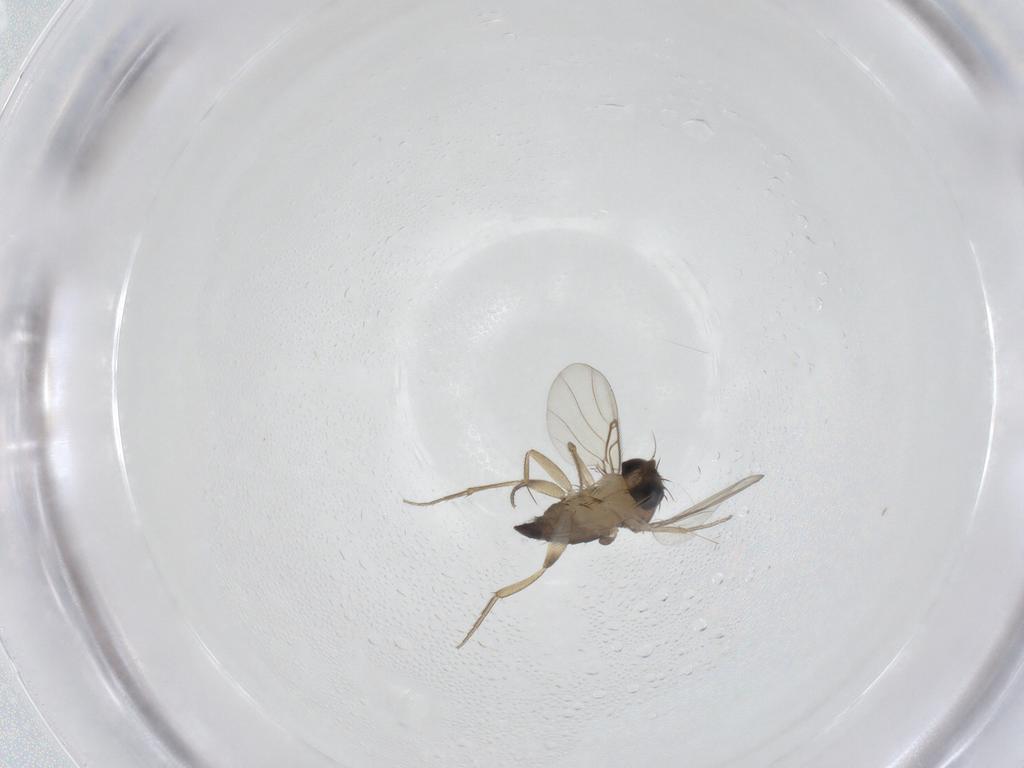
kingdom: Animalia
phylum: Arthropoda
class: Insecta
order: Diptera
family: Phoridae
